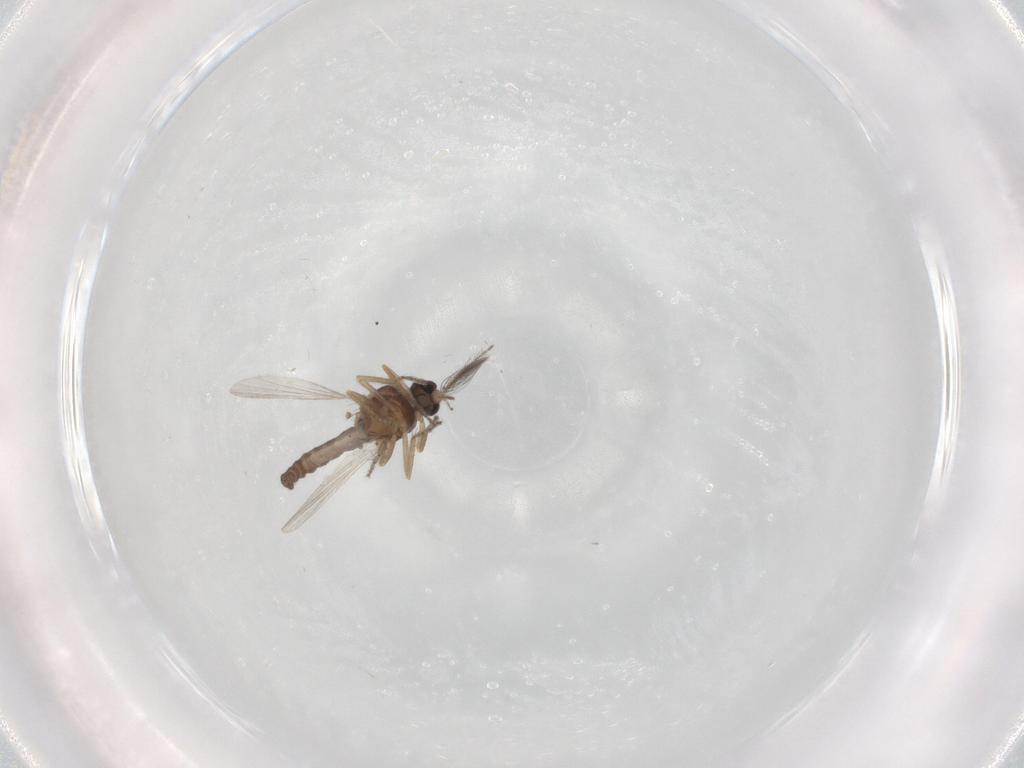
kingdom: Animalia
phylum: Arthropoda
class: Insecta
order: Diptera
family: Ceratopogonidae
